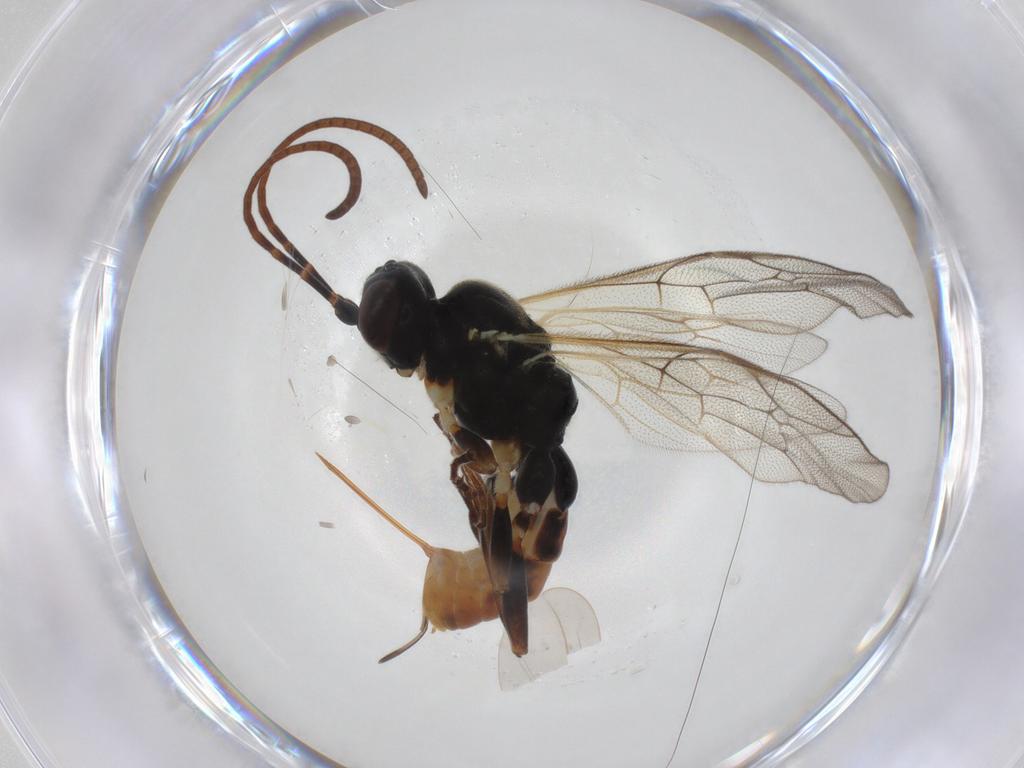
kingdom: Animalia
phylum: Arthropoda
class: Insecta
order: Hymenoptera
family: Ichneumonidae
